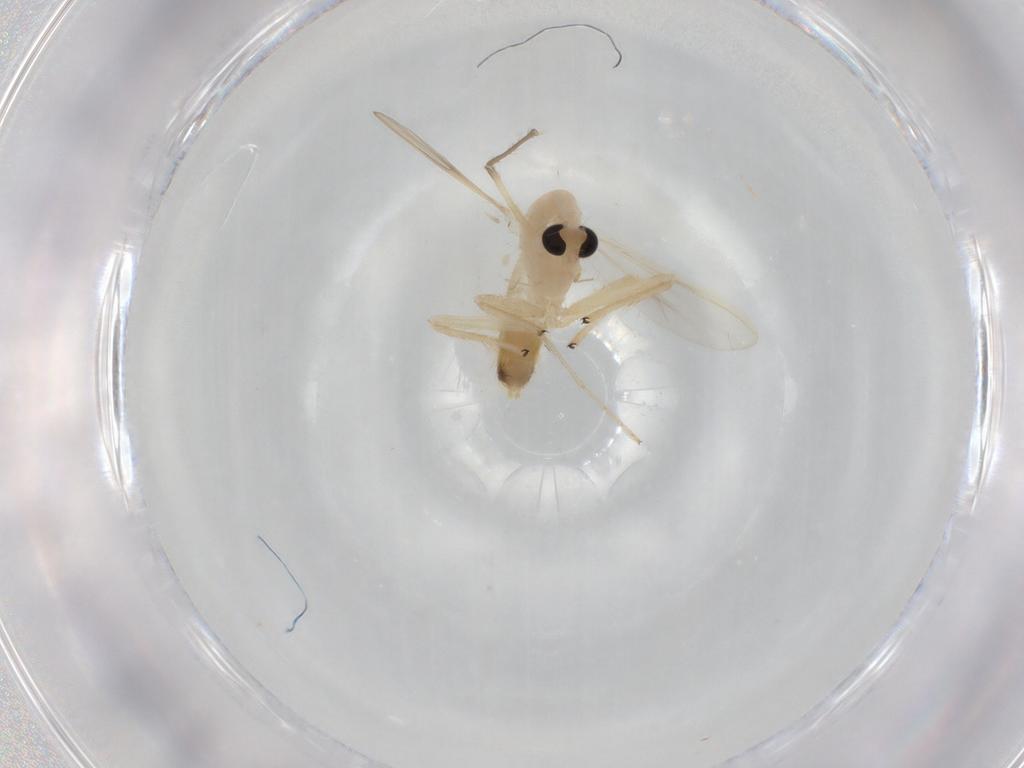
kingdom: Animalia
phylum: Arthropoda
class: Insecta
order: Diptera
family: Chironomidae
